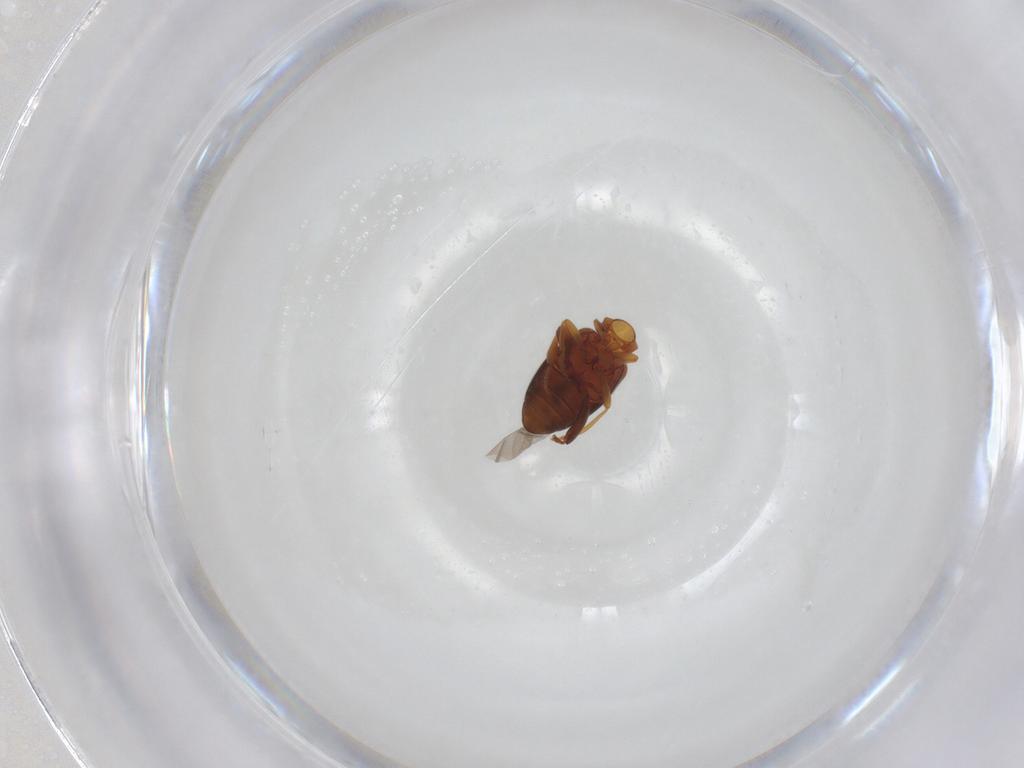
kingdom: Animalia
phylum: Arthropoda
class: Insecta
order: Coleoptera
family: Aderidae
